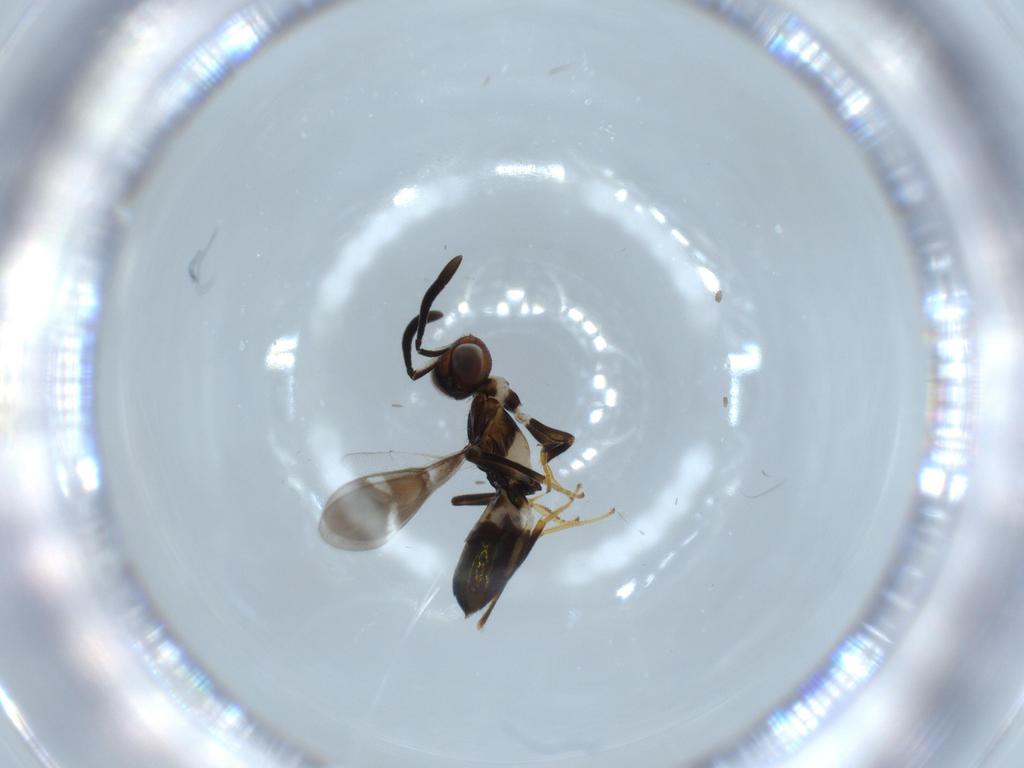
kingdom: Animalia
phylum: Arthropoda
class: Insecta
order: Hymenoptera
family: Eupelmidae
